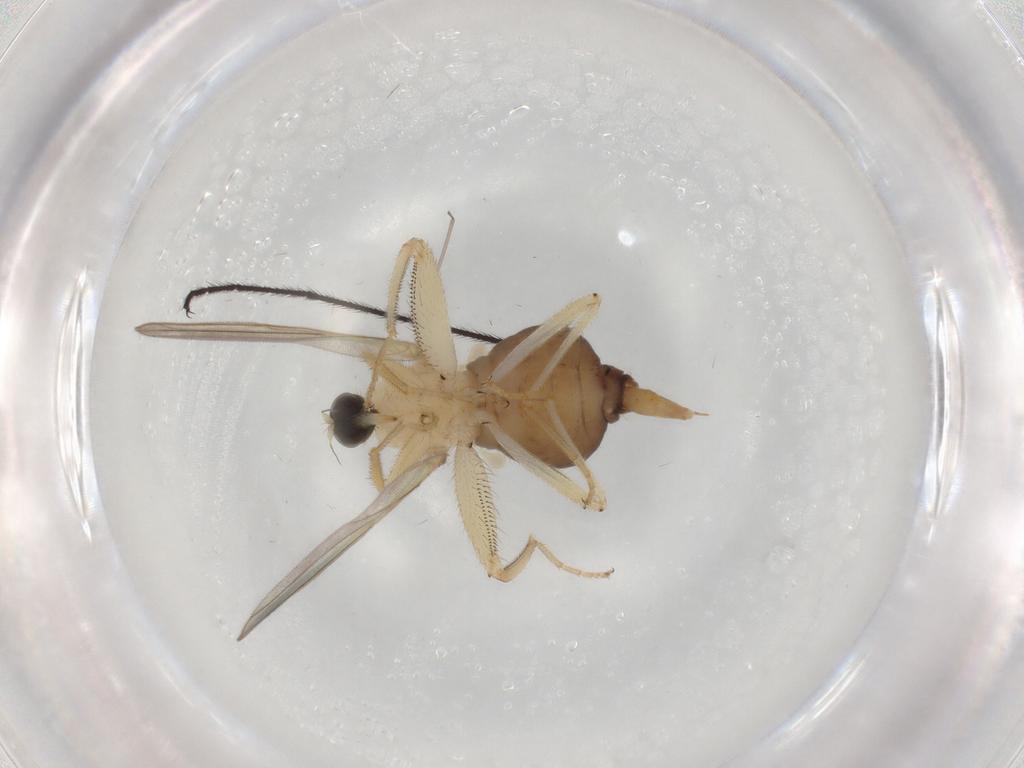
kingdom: Animalia
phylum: Arthropoda
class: Insecta
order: Diptera
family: Hybotidae
